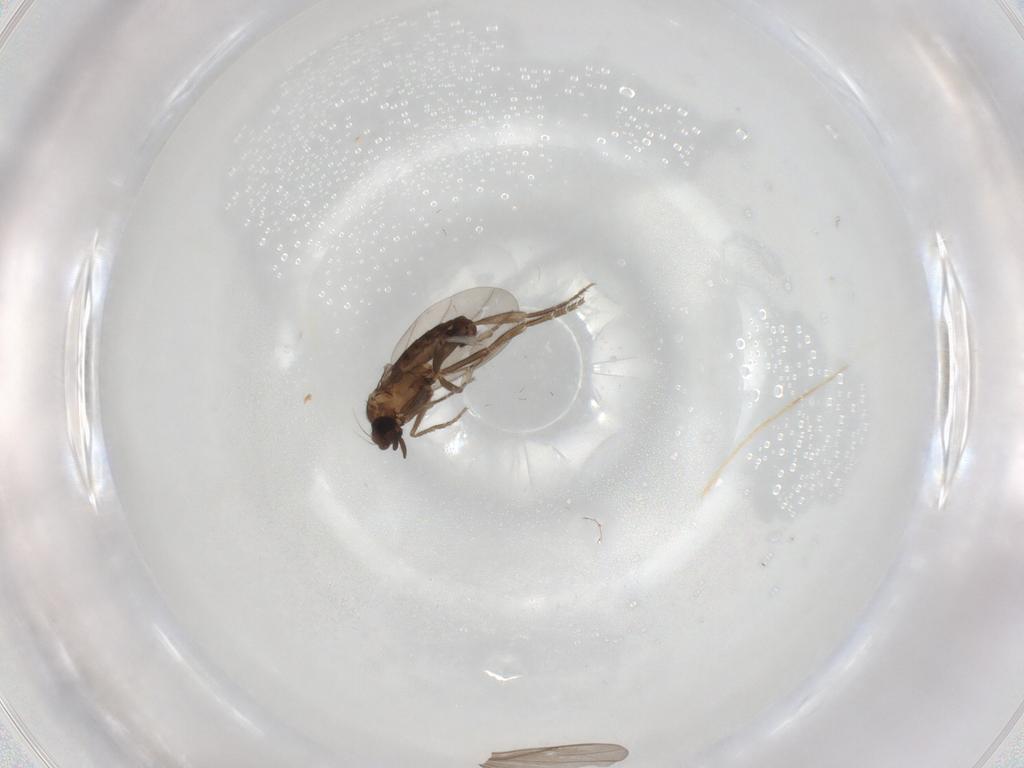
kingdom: Animalia
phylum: Arthropoda
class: Insecta
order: Diptera
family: Phoridae
